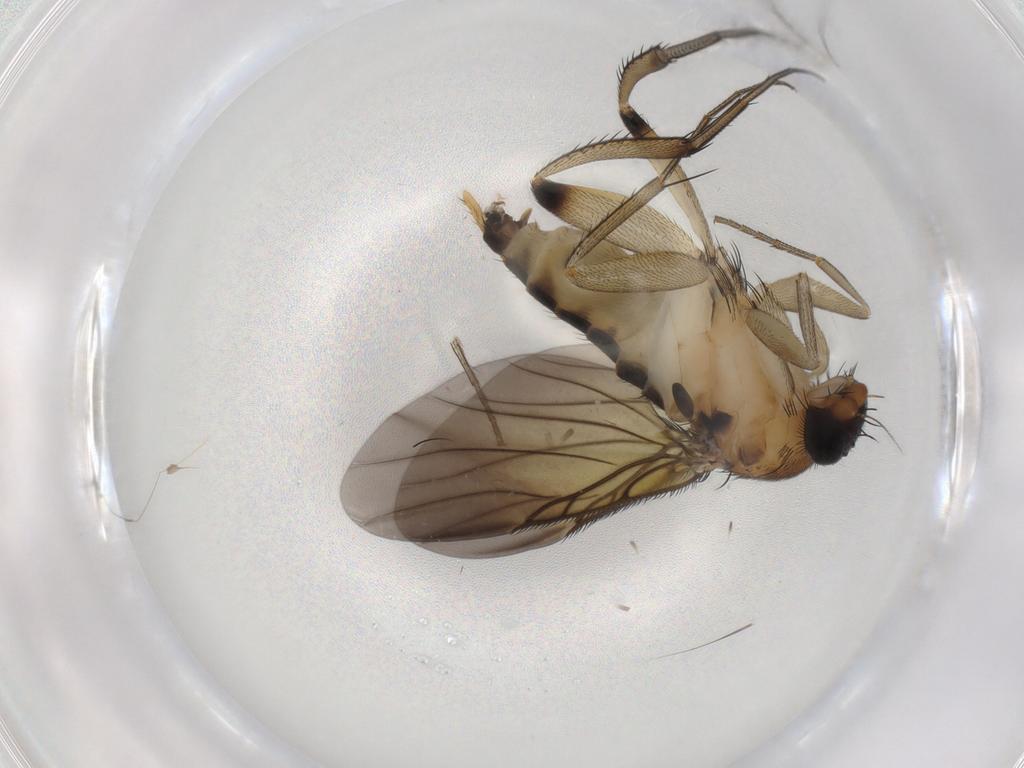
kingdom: Animalia
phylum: Arthropoda
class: Insecta
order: Diptera
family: Phoridae
